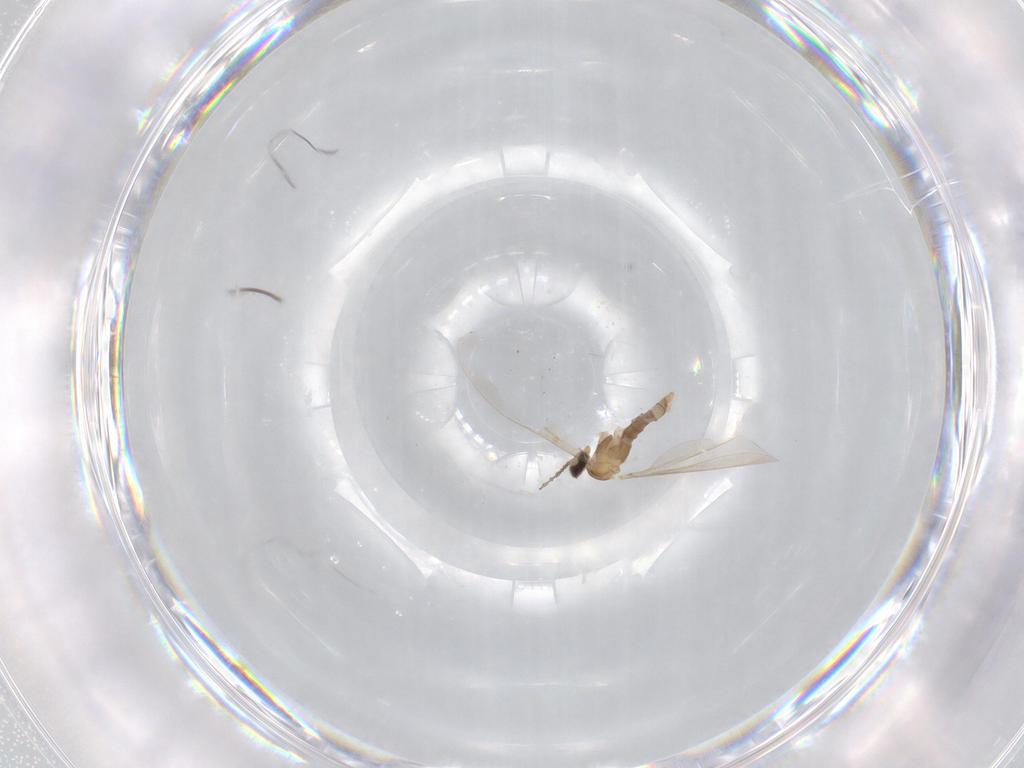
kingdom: Animalia
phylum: Arthropoda
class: Insecta
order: Diptera
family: Cecidomyiidae
